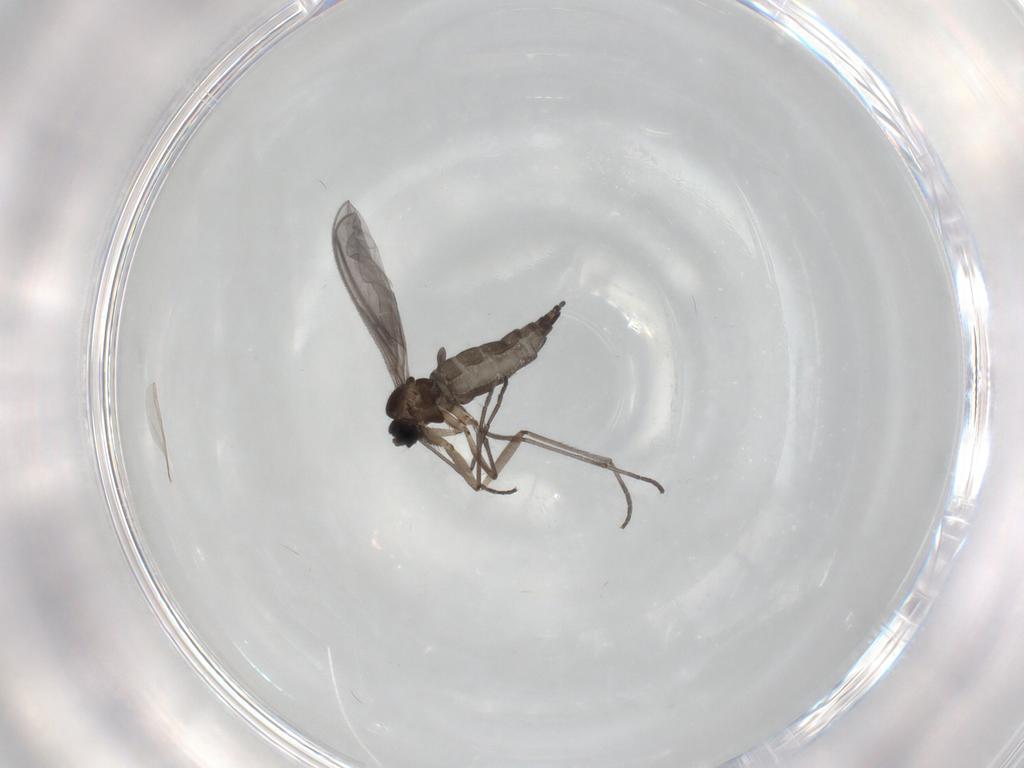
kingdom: Animalia
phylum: Arthropoda
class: Insecta
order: Diptera
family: Sciaridae
